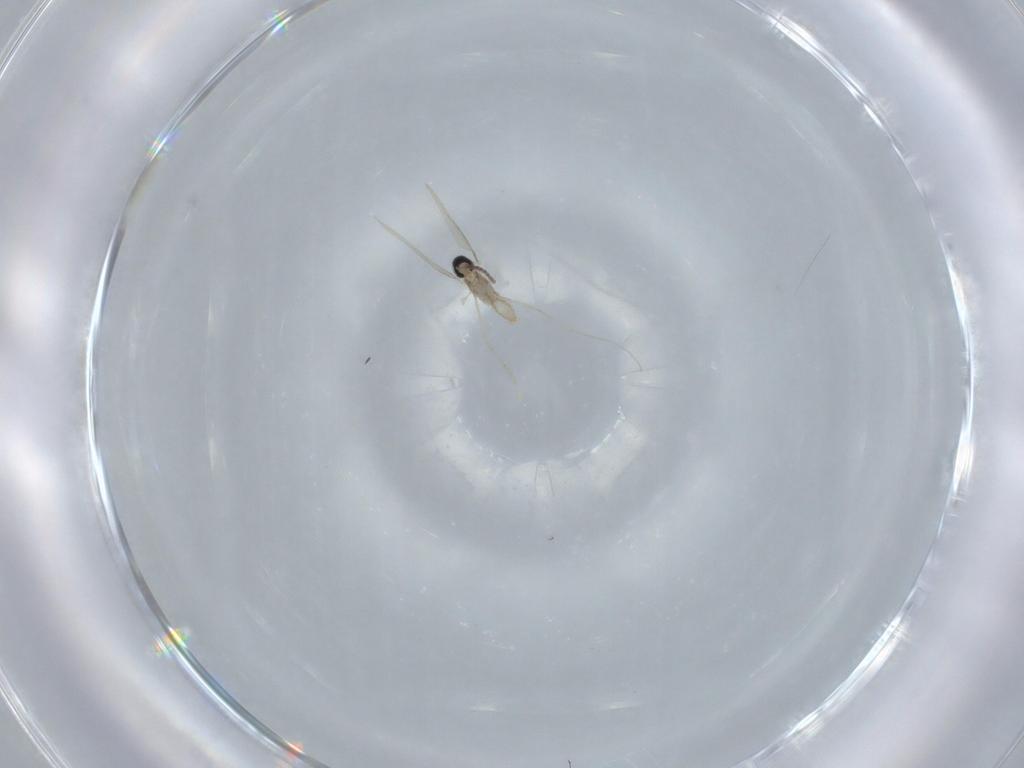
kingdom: Animalia
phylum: Arthropoda
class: Insecta
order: Diptera
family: Cecidomyiidae
